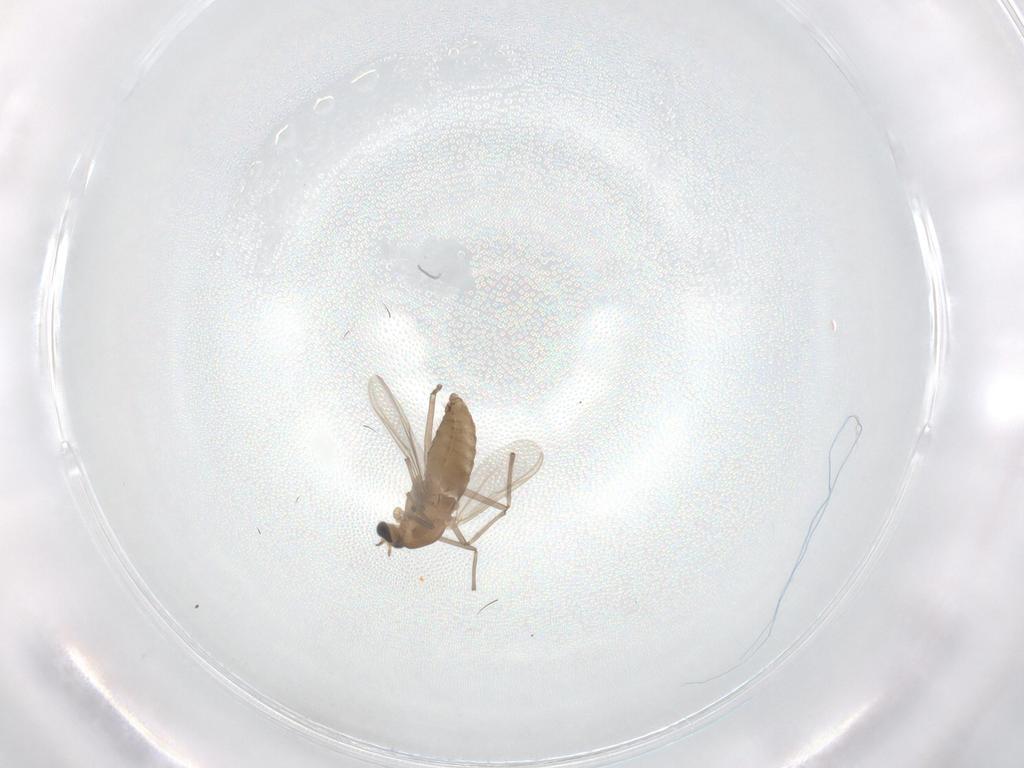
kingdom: Animalia
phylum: Arthropoda
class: Insecta
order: Diptera
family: Chironomidae
